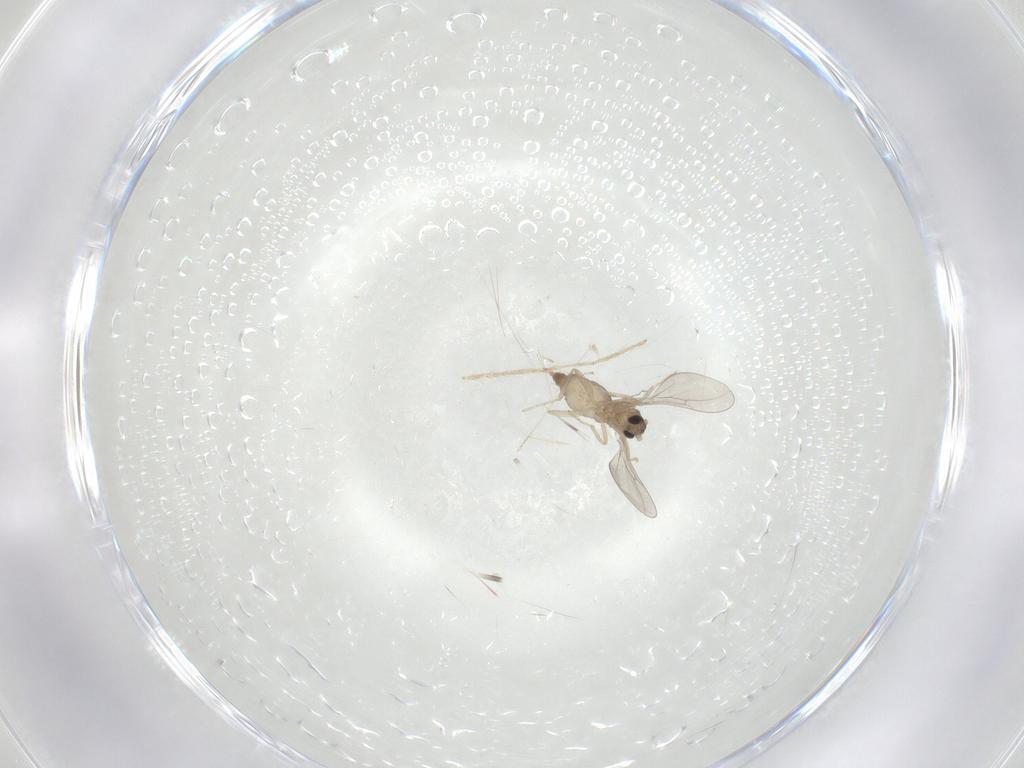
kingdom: Animalia
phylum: Arthropoda
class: Insecta
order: Diptera
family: Cecidomyiidae
